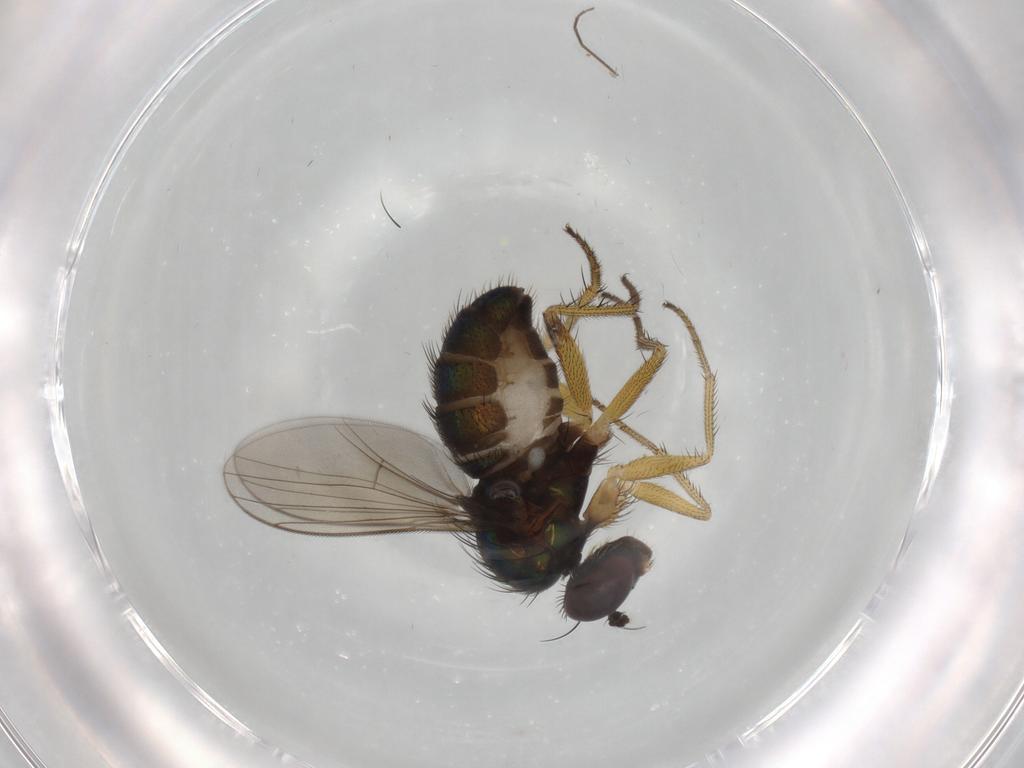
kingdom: Animalia
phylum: Arthropoda
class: Insecta
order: Diptera
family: Dolichopodidae
